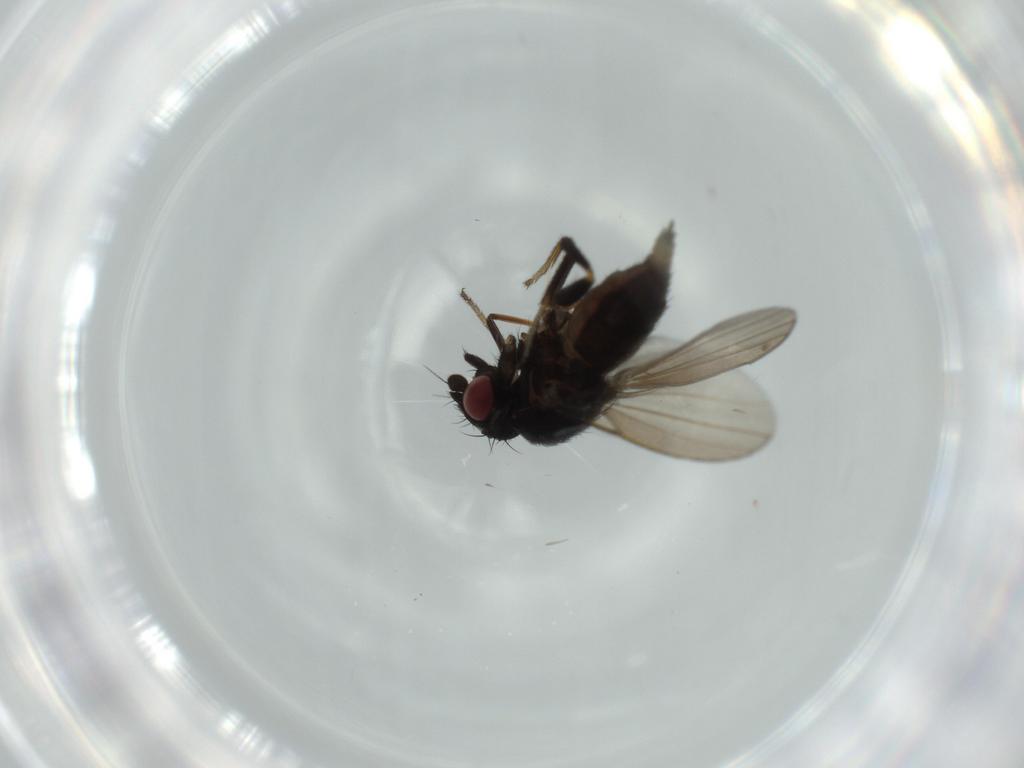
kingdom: Animalia
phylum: Arthropoda
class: Insecta
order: Diptera
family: Milichiidae
